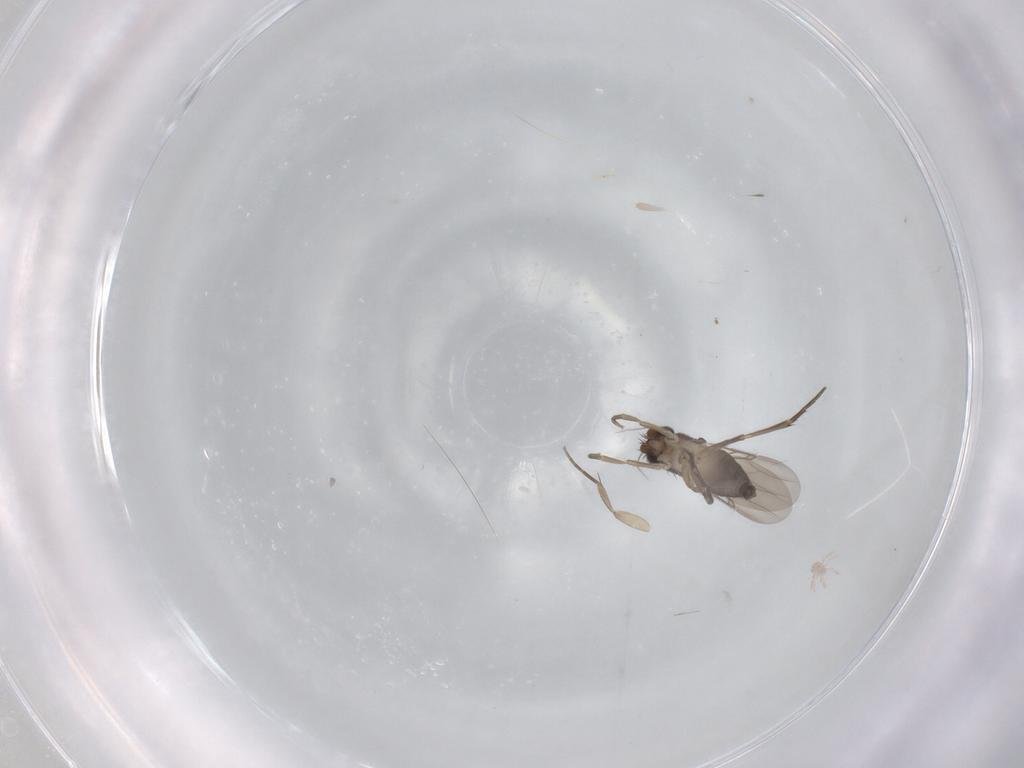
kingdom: Animalia
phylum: Arthropoda
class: Insecta
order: Diptera
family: Phoridae
